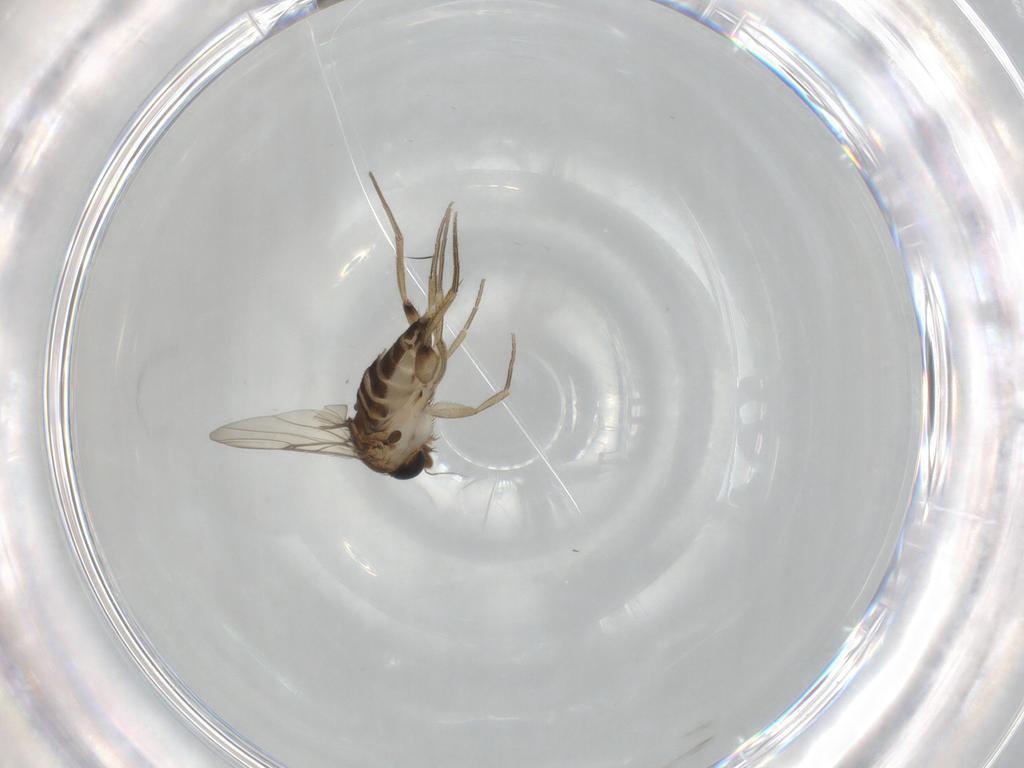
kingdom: Animalia
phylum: Arthropoda
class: Insecta
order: Diptera
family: Phoridae
